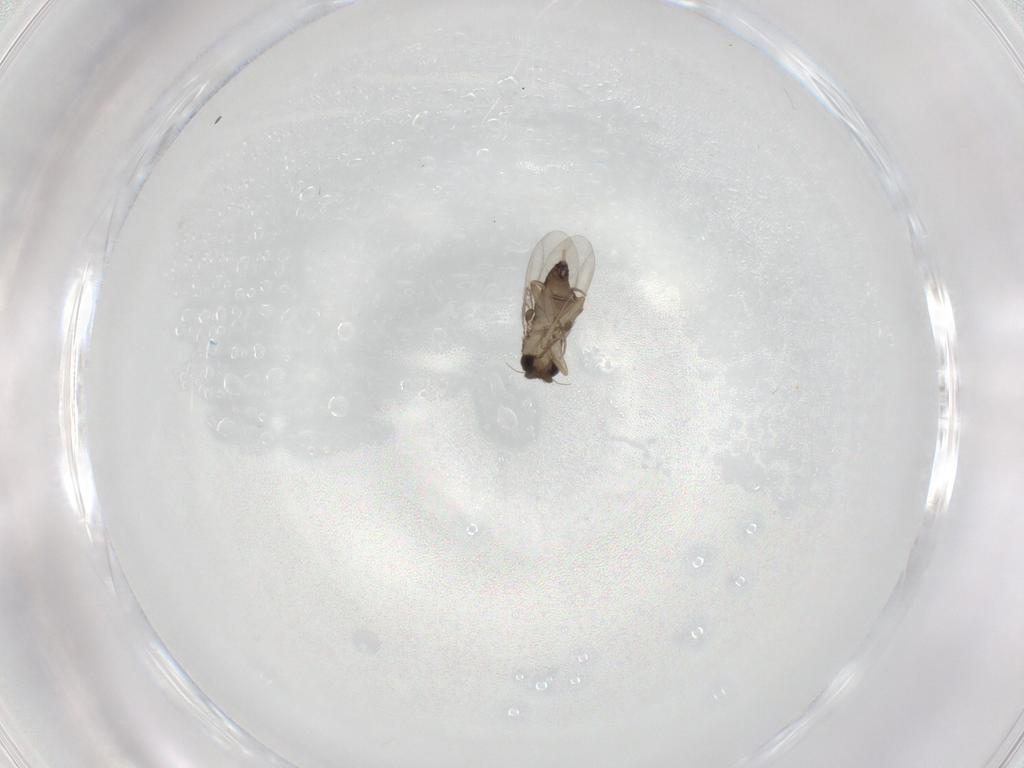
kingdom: Animalia
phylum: Arthropoda
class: Insecta
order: Diptera
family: Phoridae
